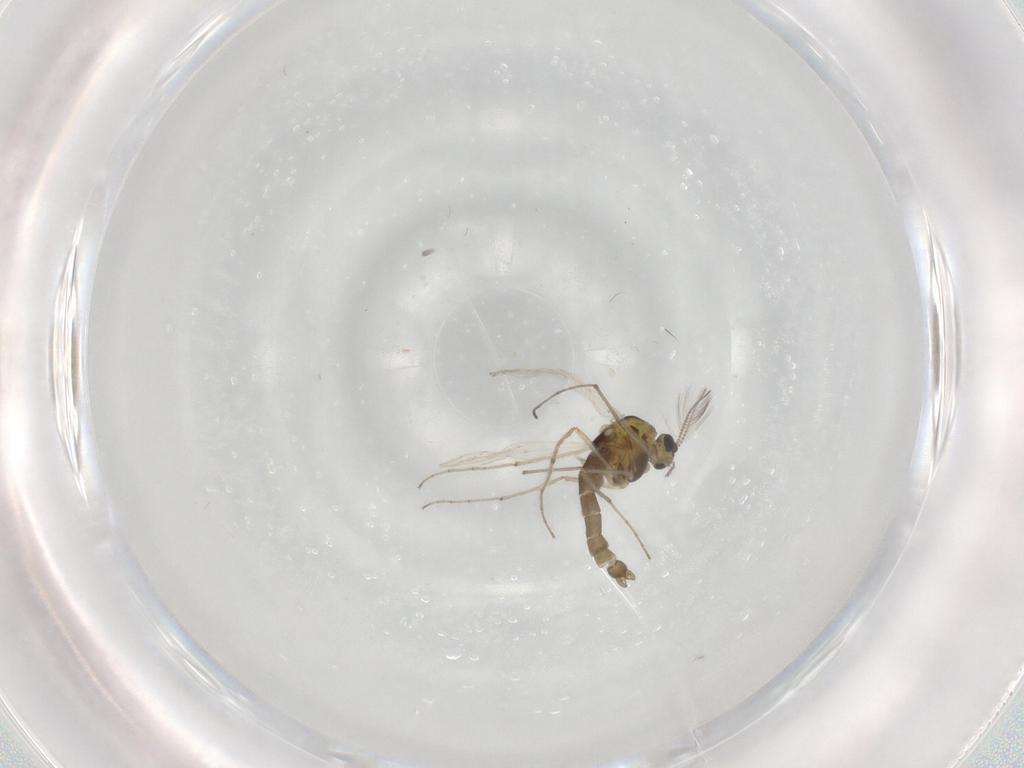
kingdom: Animalia
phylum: Arthropoda
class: Insecta
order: Diptera
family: Chironomidae
